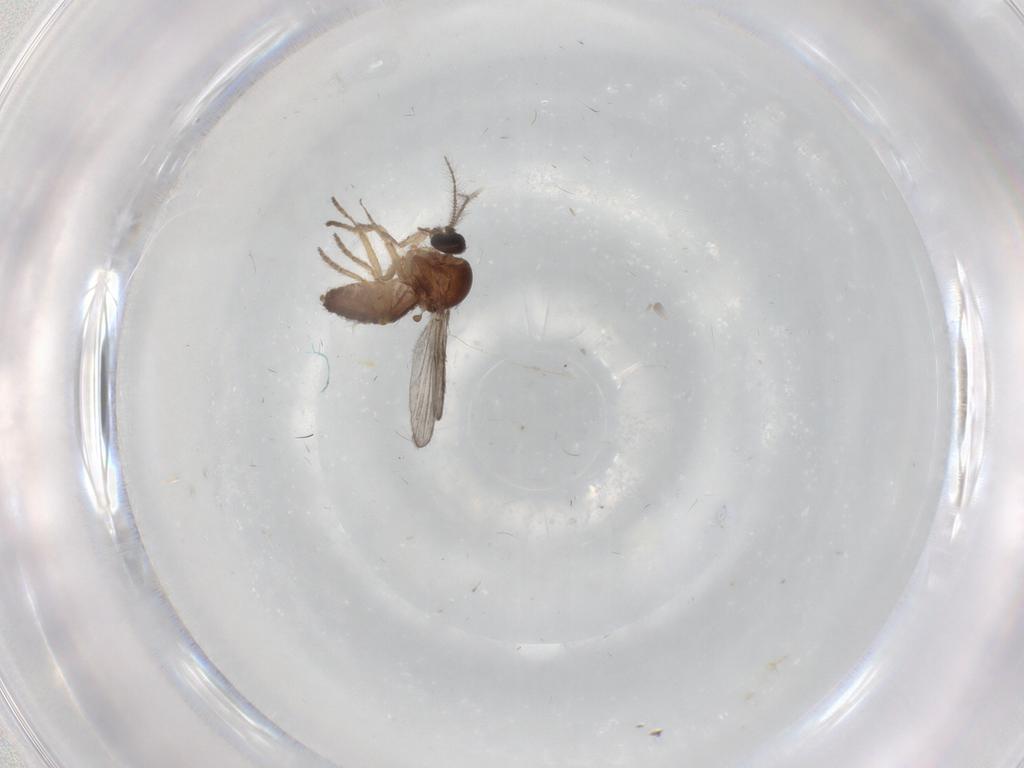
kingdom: Animalia
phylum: Arthropoda
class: Insecta
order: Diptera
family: Ceratopogonidae
